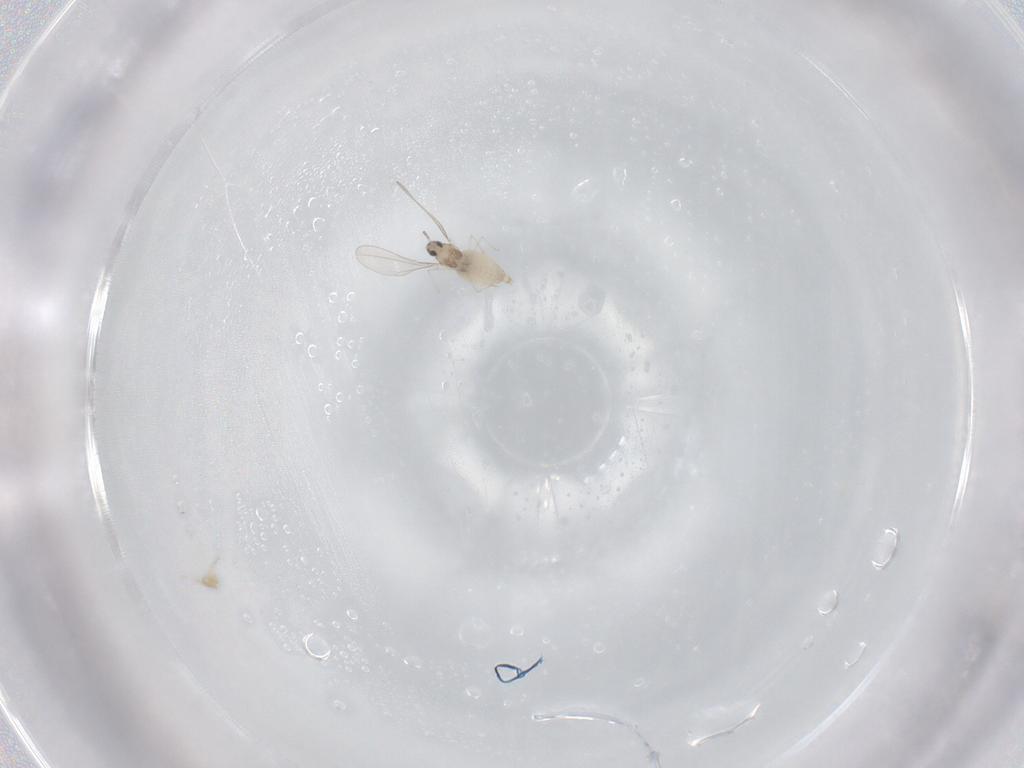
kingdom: Animalia
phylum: Arthropoda
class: Insecta
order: Diptera
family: Cecidomyiidae
